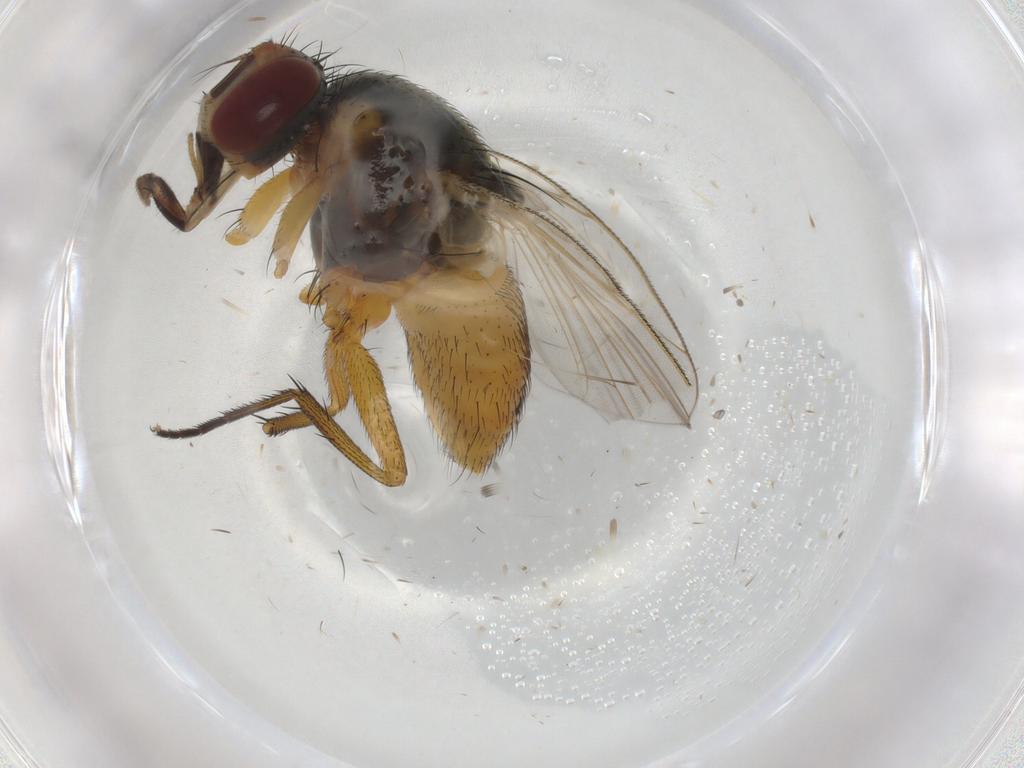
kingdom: Animalia
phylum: Arthropoda
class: Insecta
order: Diptera
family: Muscidae
